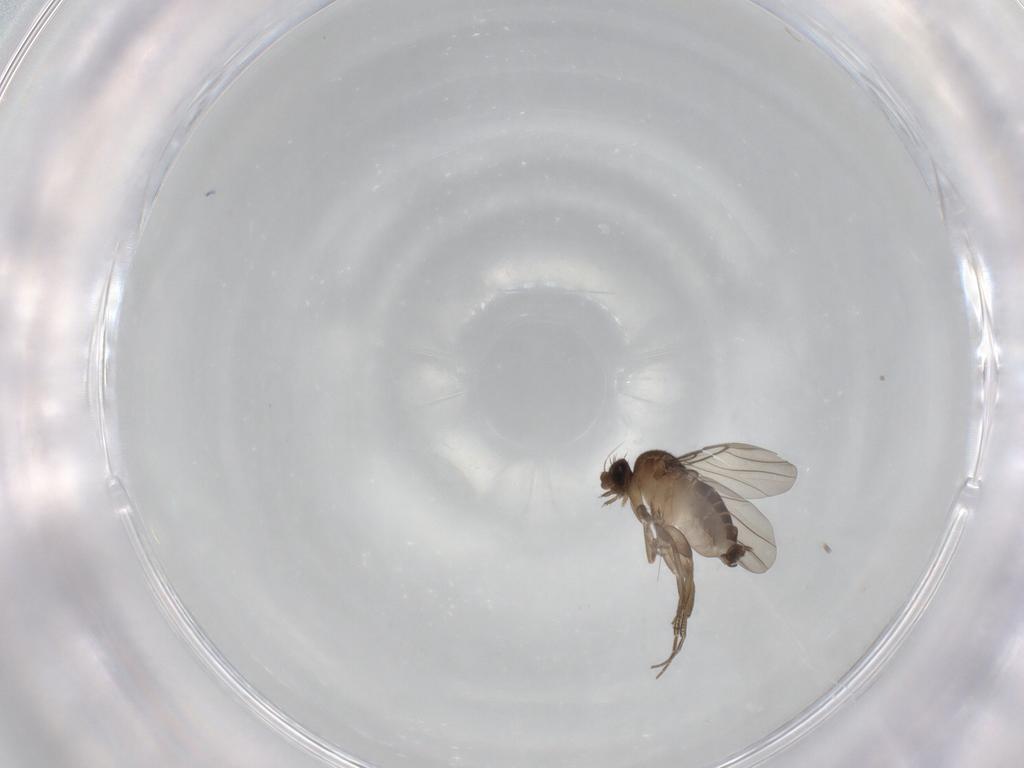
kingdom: Animalia
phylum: Arthropoda
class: Insecta
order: Diptera
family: Phoridae
